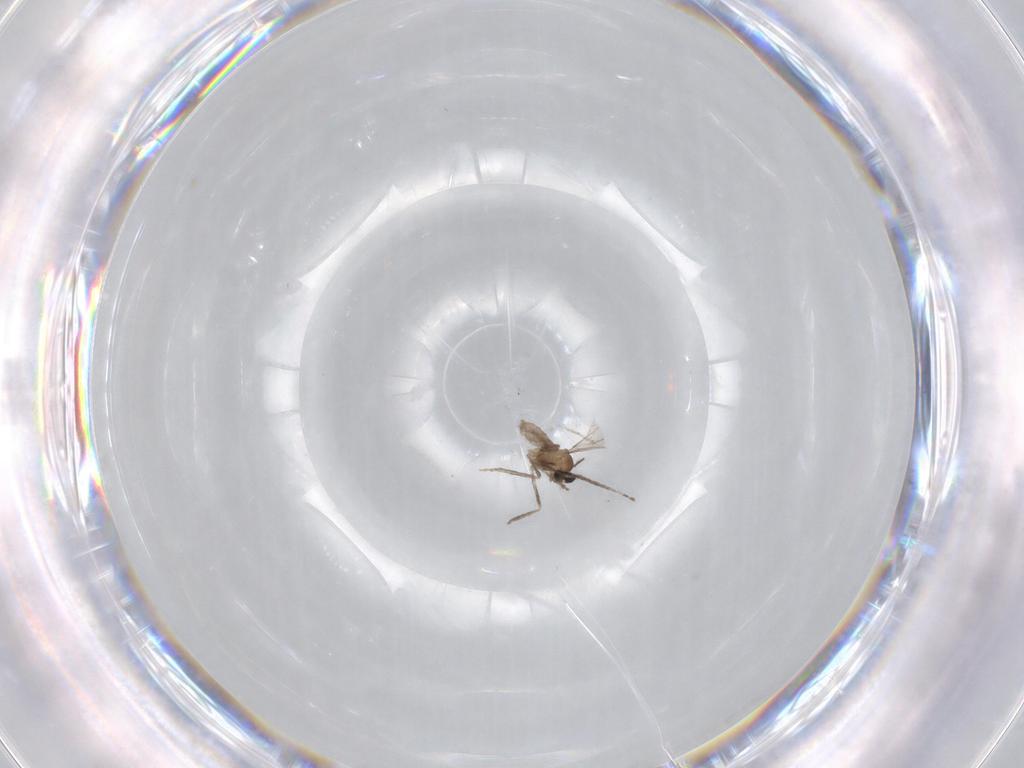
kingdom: Animalia
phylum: Arthropoda
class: Insecta
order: Diptera
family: Cecidomyiidae
